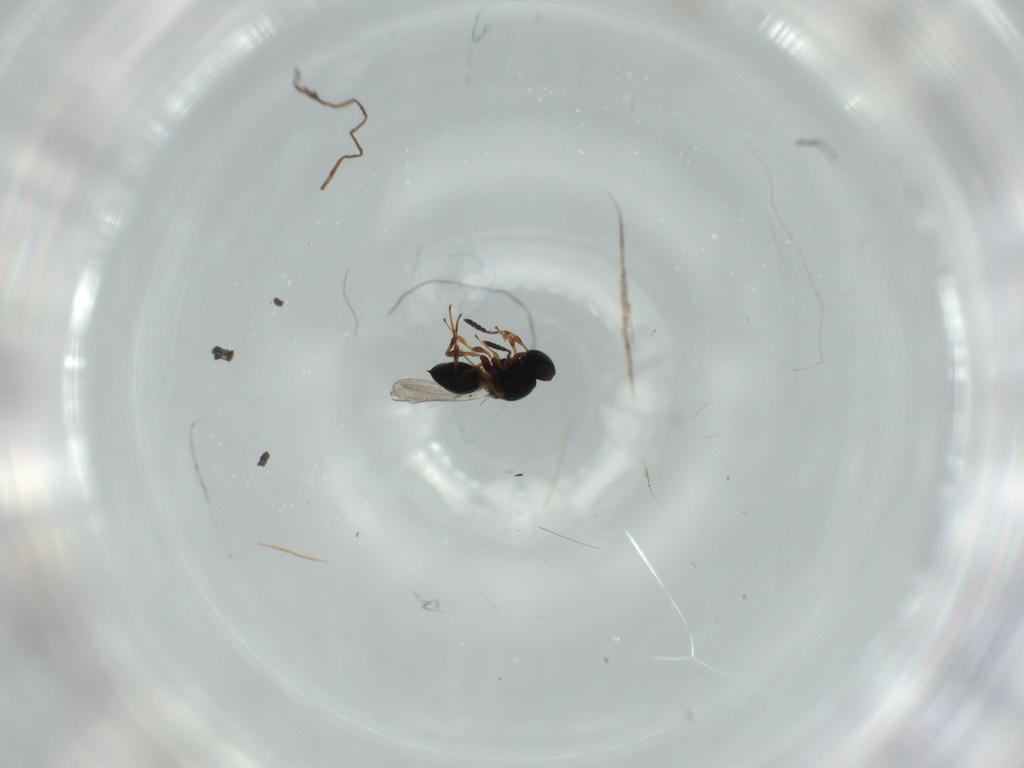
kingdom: Animalia
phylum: Arthropoda
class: Insecta
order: Hymenoptera
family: Platygastridae
